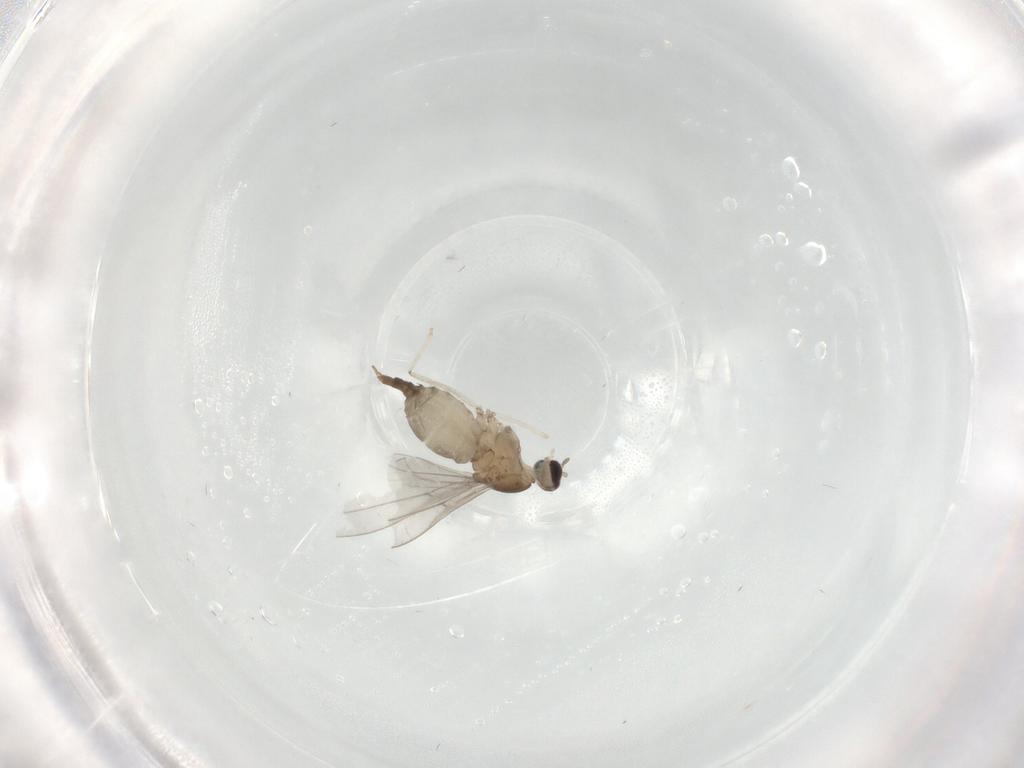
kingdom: Animalia
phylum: Arthropoda
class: Insecta
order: Diptera
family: Cecidomyiidae
